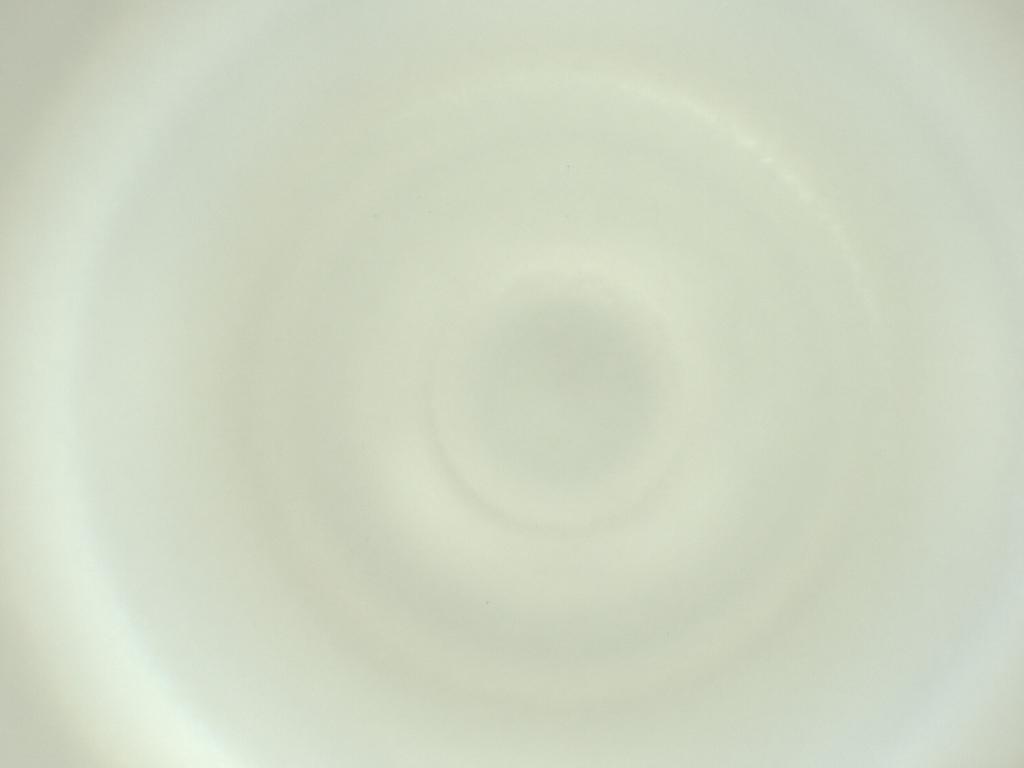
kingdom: Animalia
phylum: Arthropoda
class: Insecta
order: Diptera
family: Cecidomyiidae
